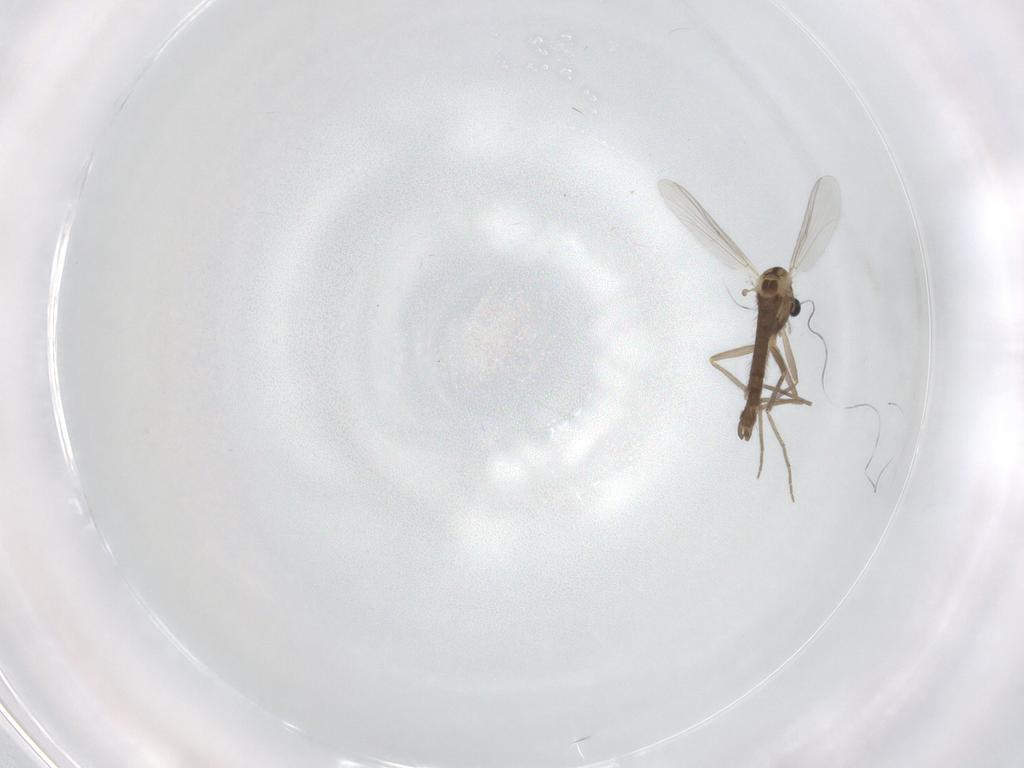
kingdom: Animalia
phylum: Arthropoda
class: Insecta
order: Diptera
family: Chironomidae
